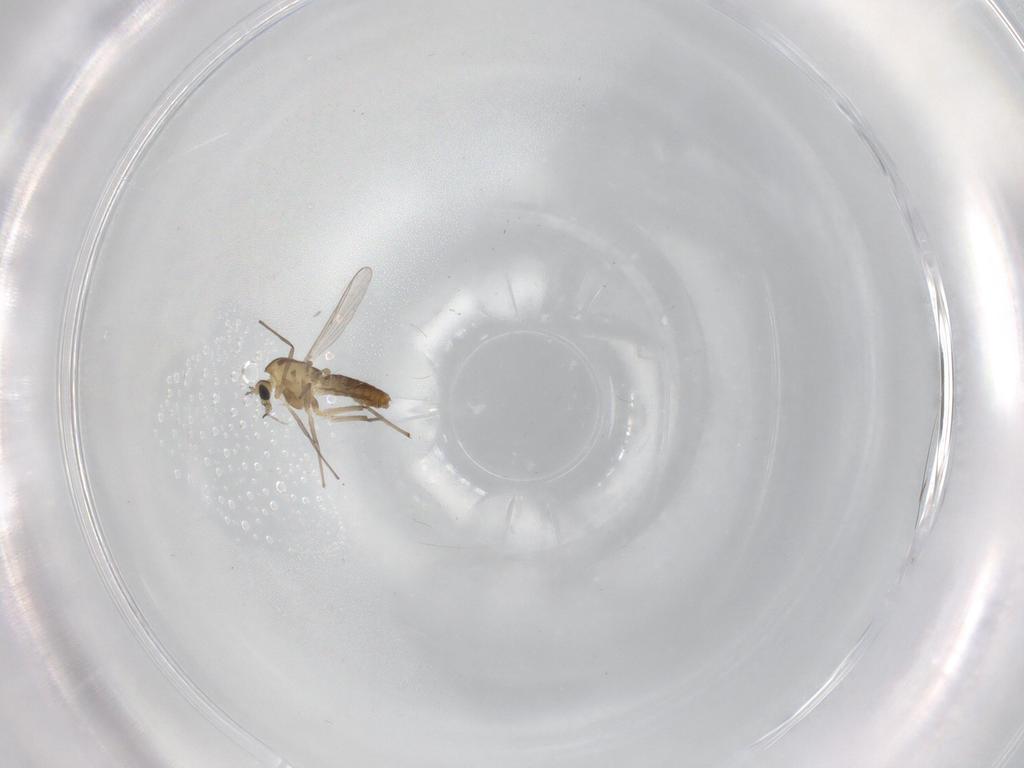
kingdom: Animalia
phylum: Arthropoda
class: Insecta
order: Diptera
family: Chironomidae
